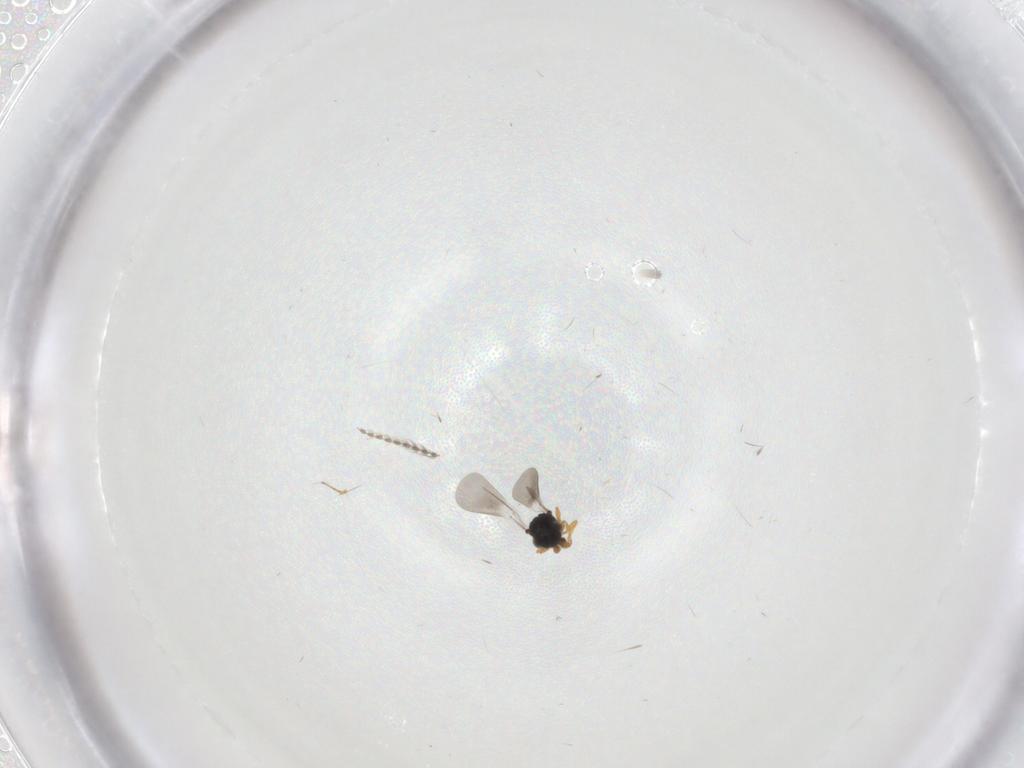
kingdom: Animalia
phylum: Arthropoda
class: Insecta
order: Hymenoptera
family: Platygastridae
